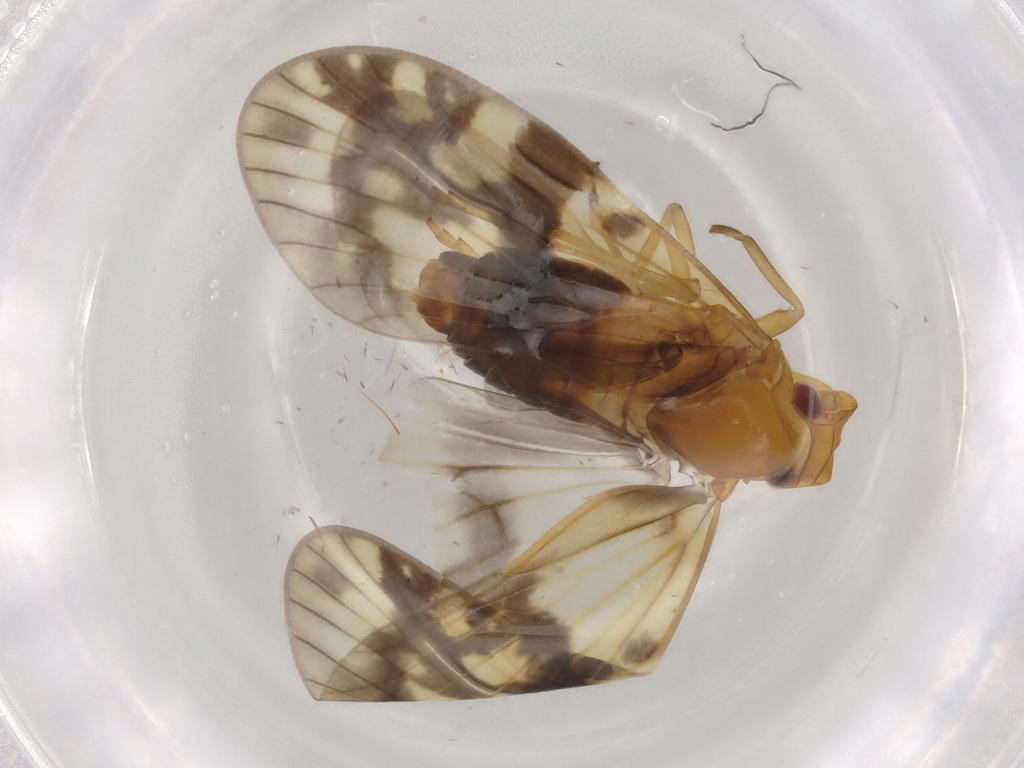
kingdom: Animalia
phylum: Arthropoda
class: Insecta
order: Hemiptera
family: Cixiidae
